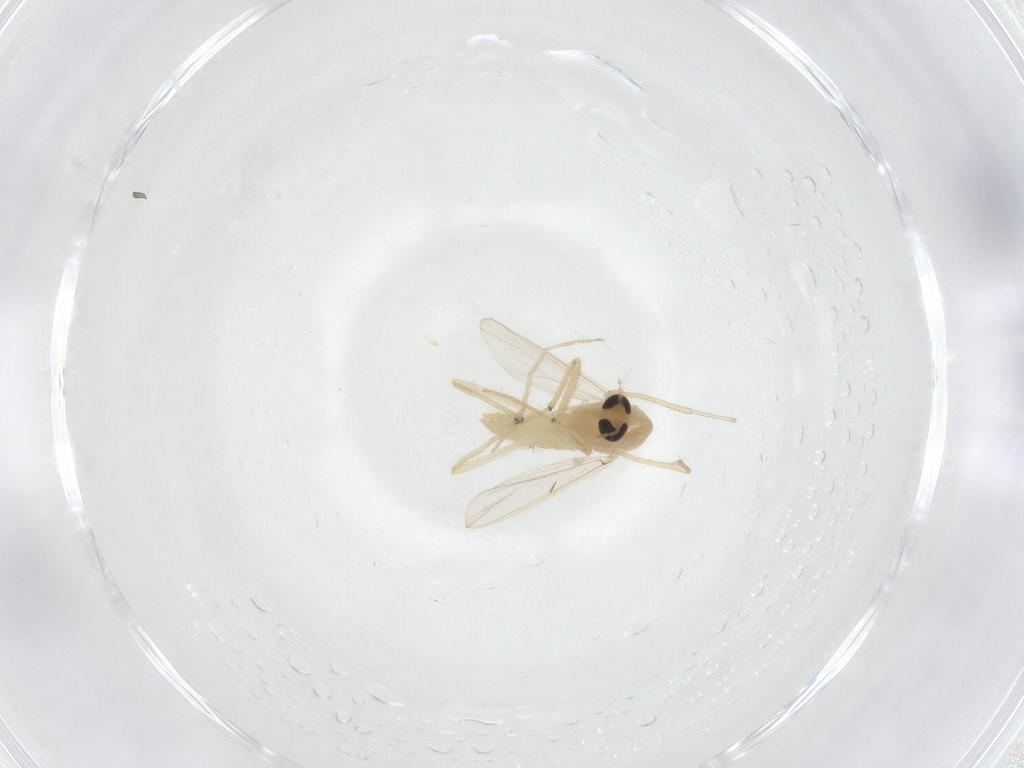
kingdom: Animalia
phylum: Arthropoda
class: Insecta
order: Diptera
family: Chironomidae
